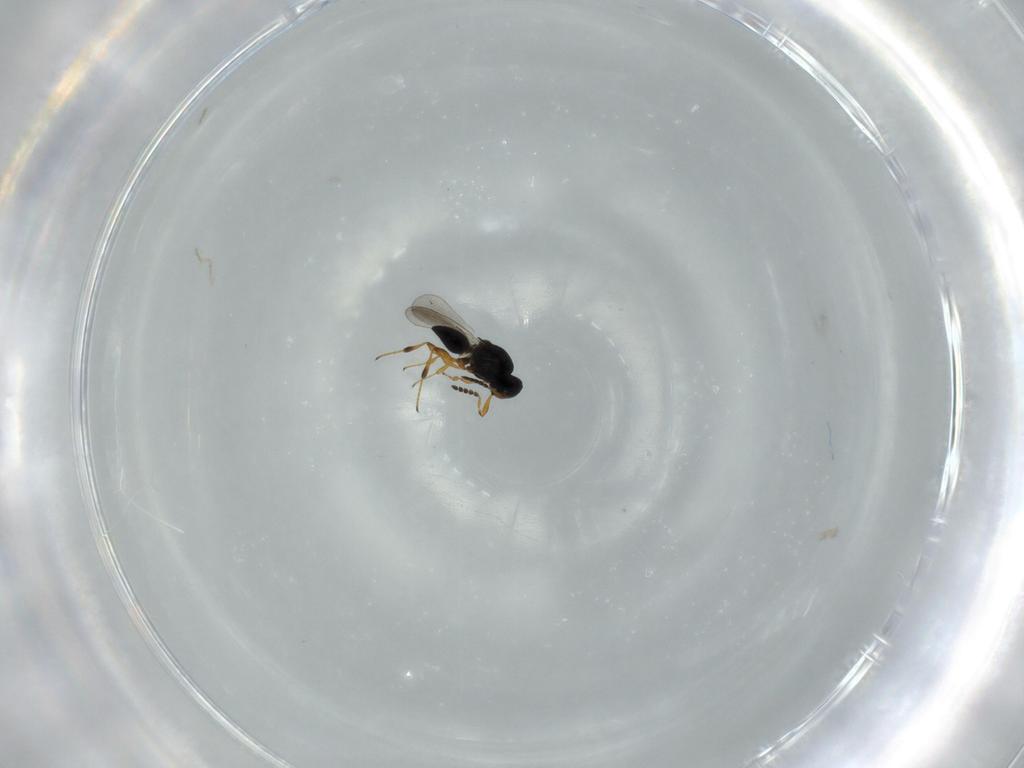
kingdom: Animalia
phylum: Arthropoda
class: Insecta
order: Hymenoptera
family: Platygastridae
